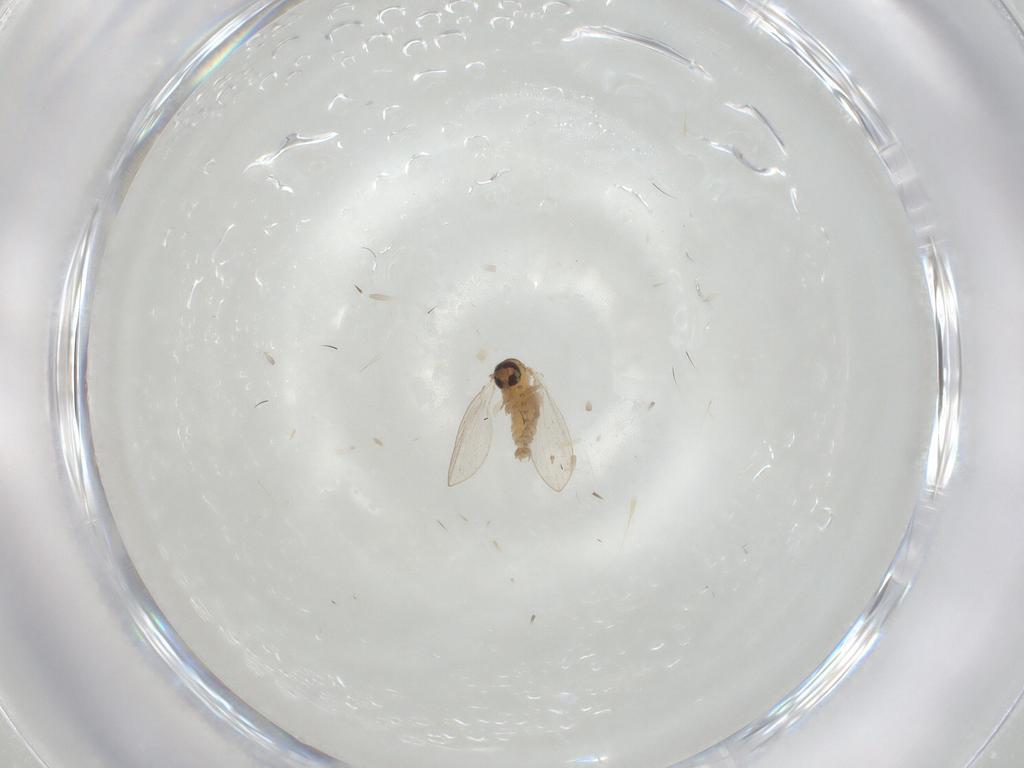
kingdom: Animalia
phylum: Arthropoda
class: Insecta
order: Diptera
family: Psychodidae
